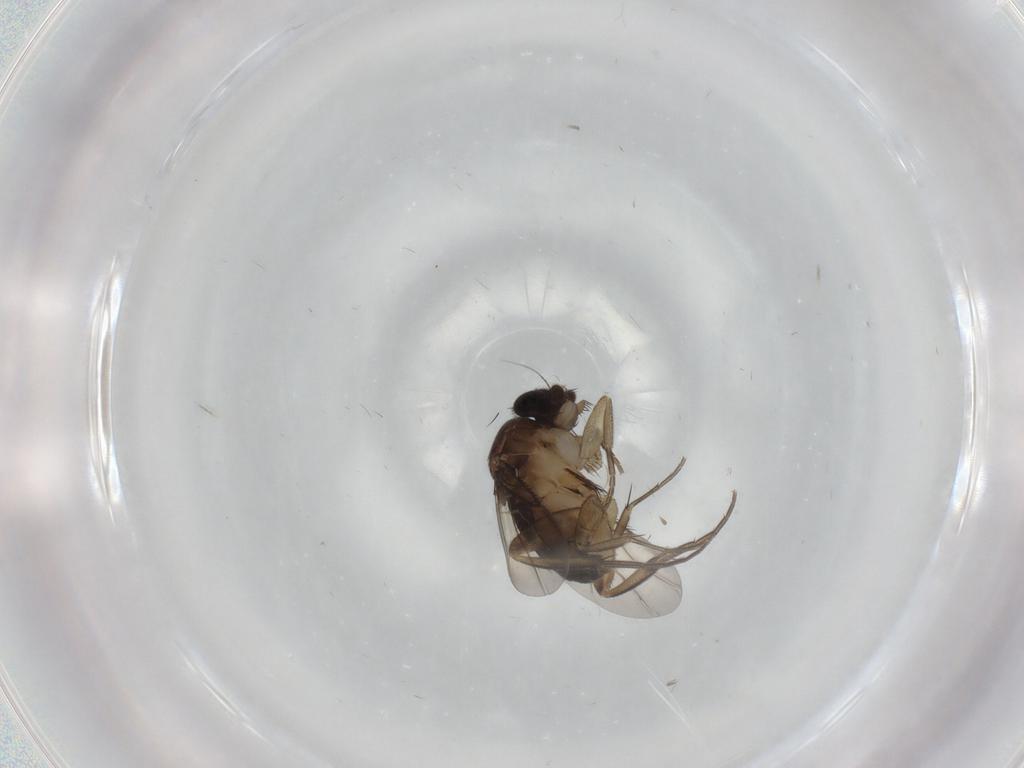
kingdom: Animalia
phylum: Arthropoda
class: Insecta
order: Diptera
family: Phoridae
